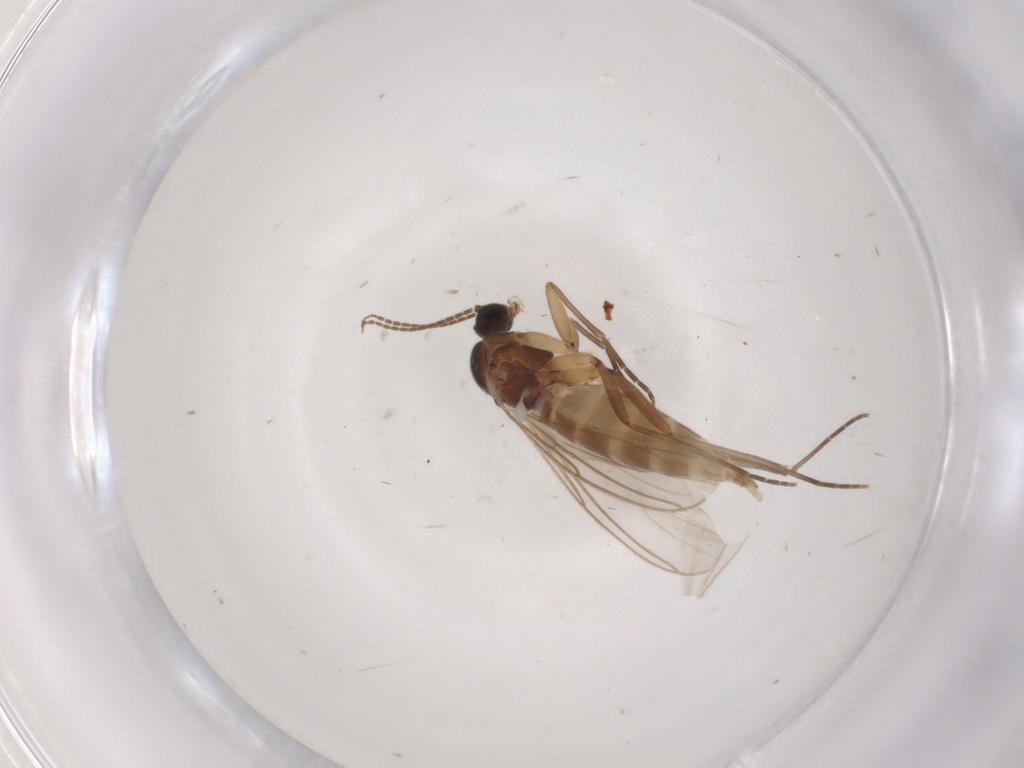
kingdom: Animalia
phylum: Arthropoda
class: Insecta
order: Diptera
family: Sciaridae
